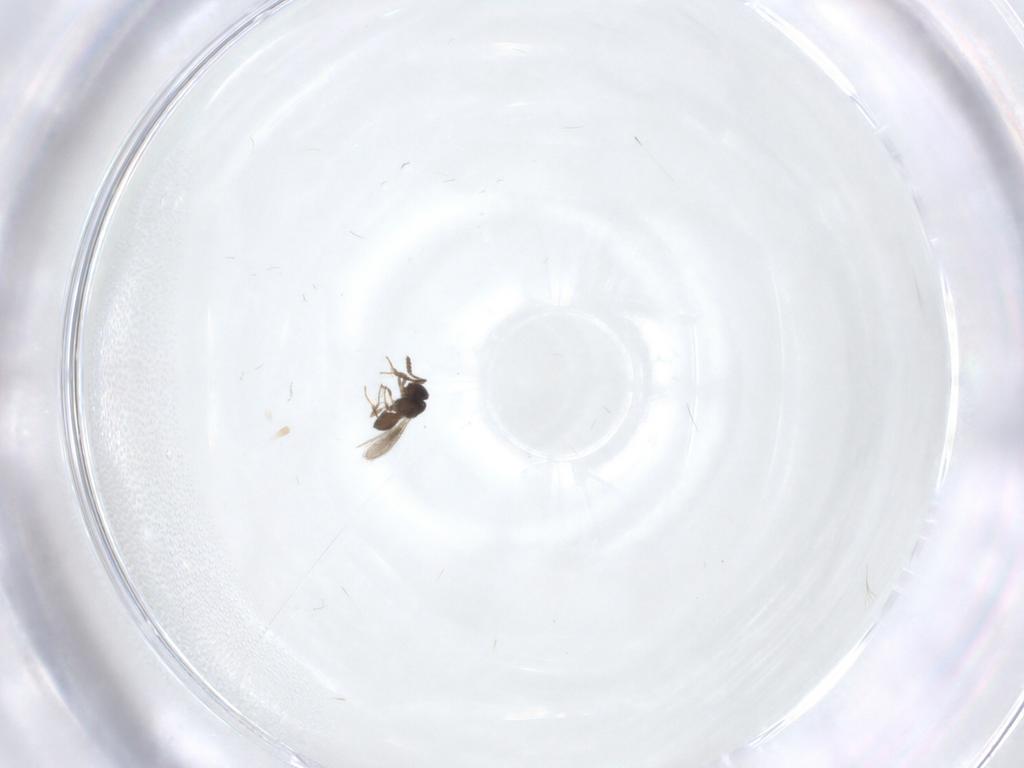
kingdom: Animalia
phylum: Arthropoda
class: Insecta
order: Hymenoptera
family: Scelionidae
